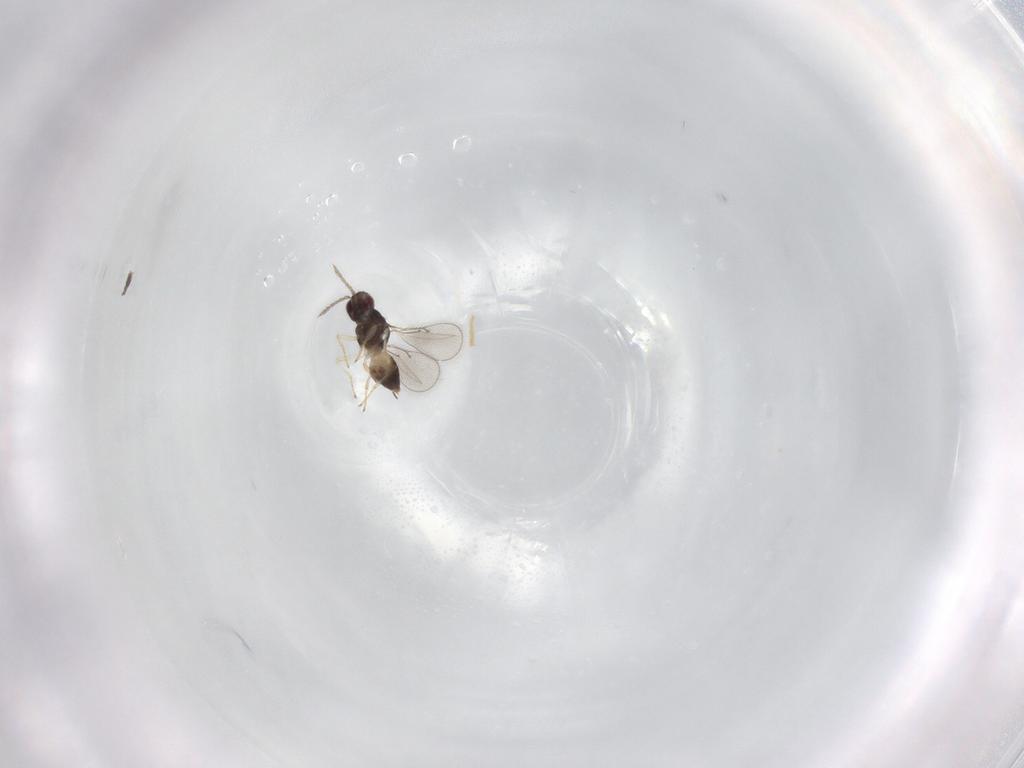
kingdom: Animalia
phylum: Arthropoda
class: Insecta
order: Hymenoptera
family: Eulophidae
